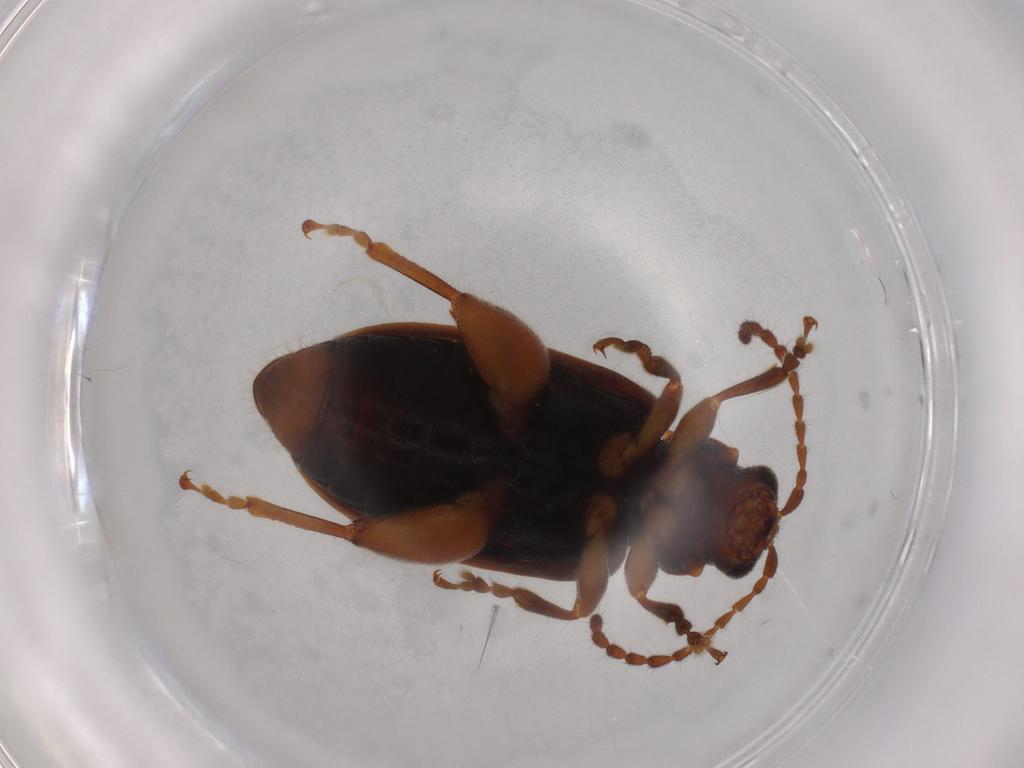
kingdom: Animalia
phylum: Arthropoda
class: Insecta
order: Coleoptera
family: Chrysomelidae
